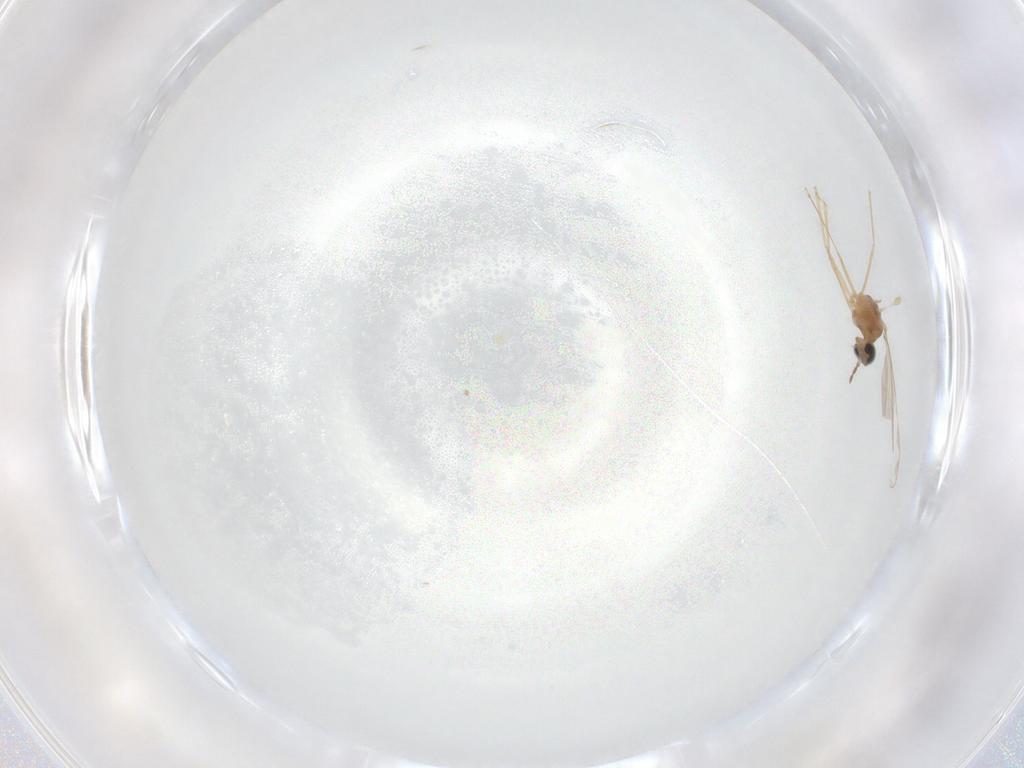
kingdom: Animalia
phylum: Arthropoda
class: Insecta
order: Diptera
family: Cecidomyiidae
